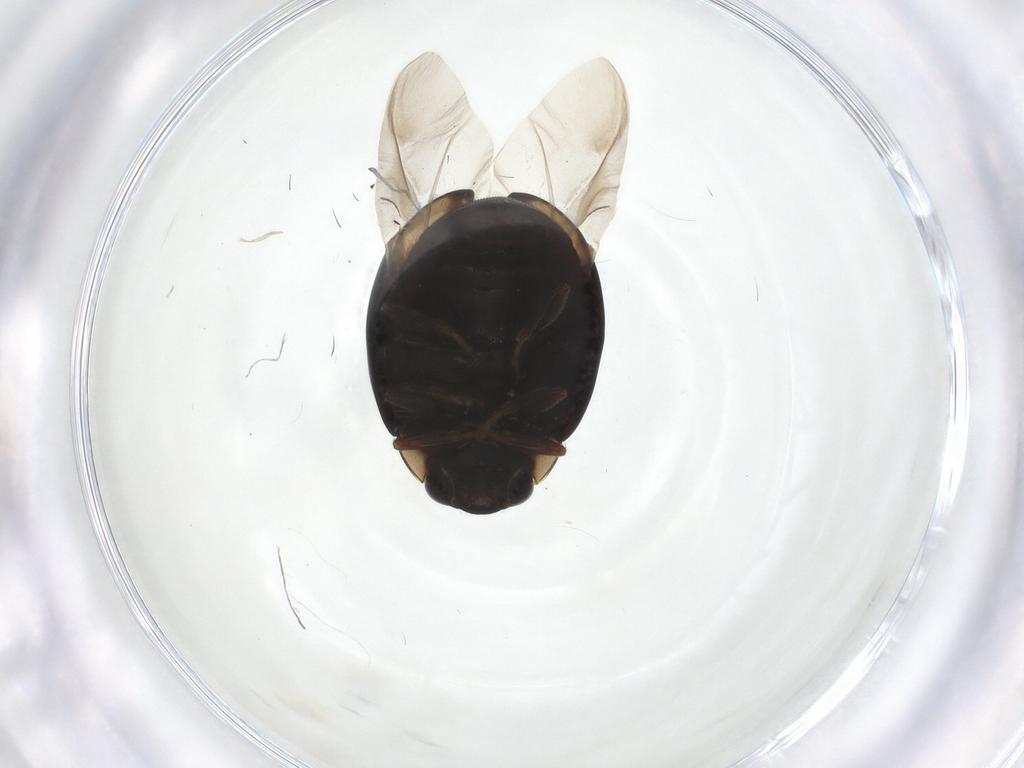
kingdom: Animalia
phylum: Arthropoda
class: Insecta
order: Coleoptera
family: Coccinellidae
